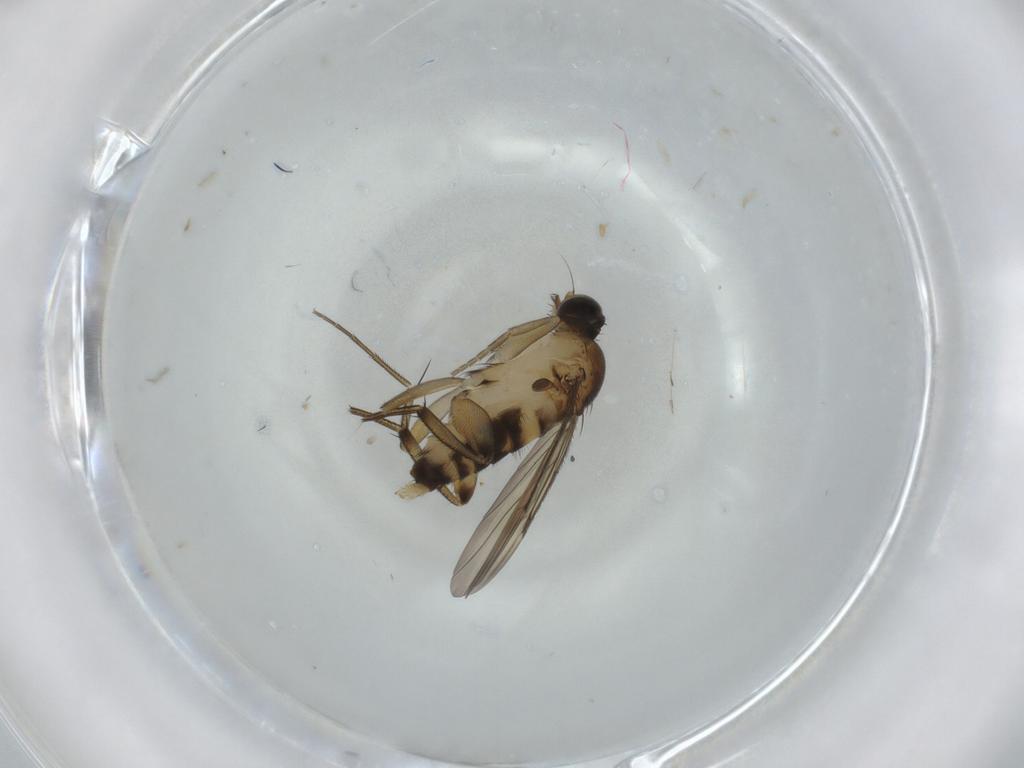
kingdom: Animalia
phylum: Arthropoda
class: Insecta
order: Diptera
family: Phoridae
